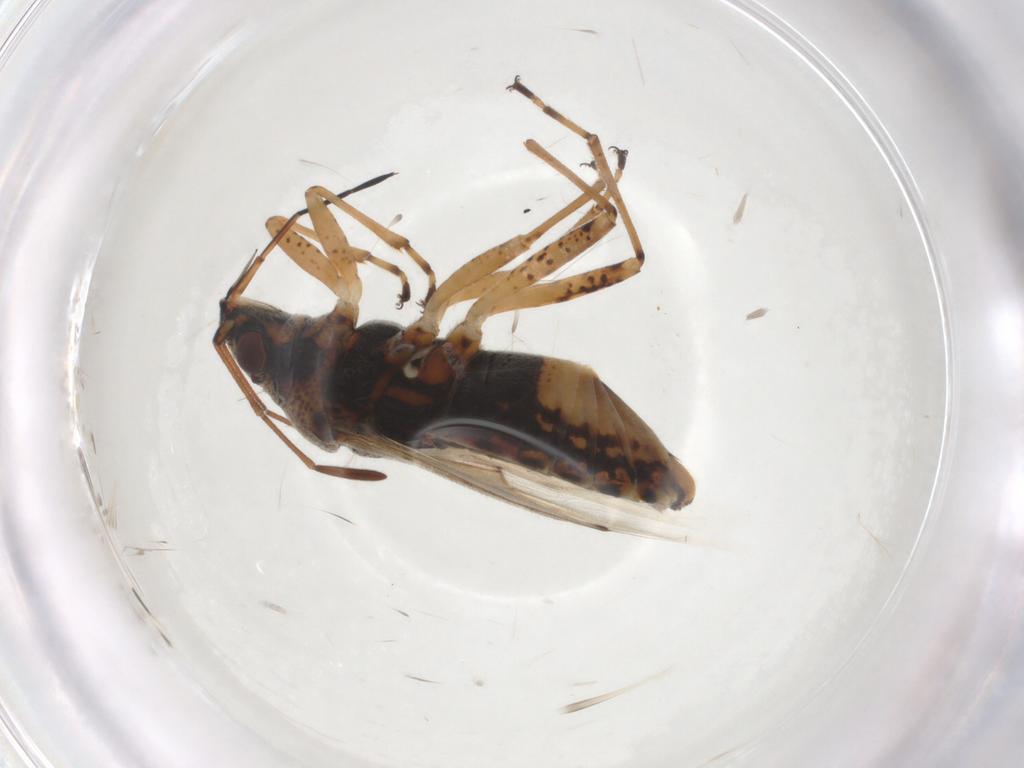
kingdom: Animalia
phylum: Arthropoda
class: Insecta
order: Hemiptera
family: Lygaeidae
